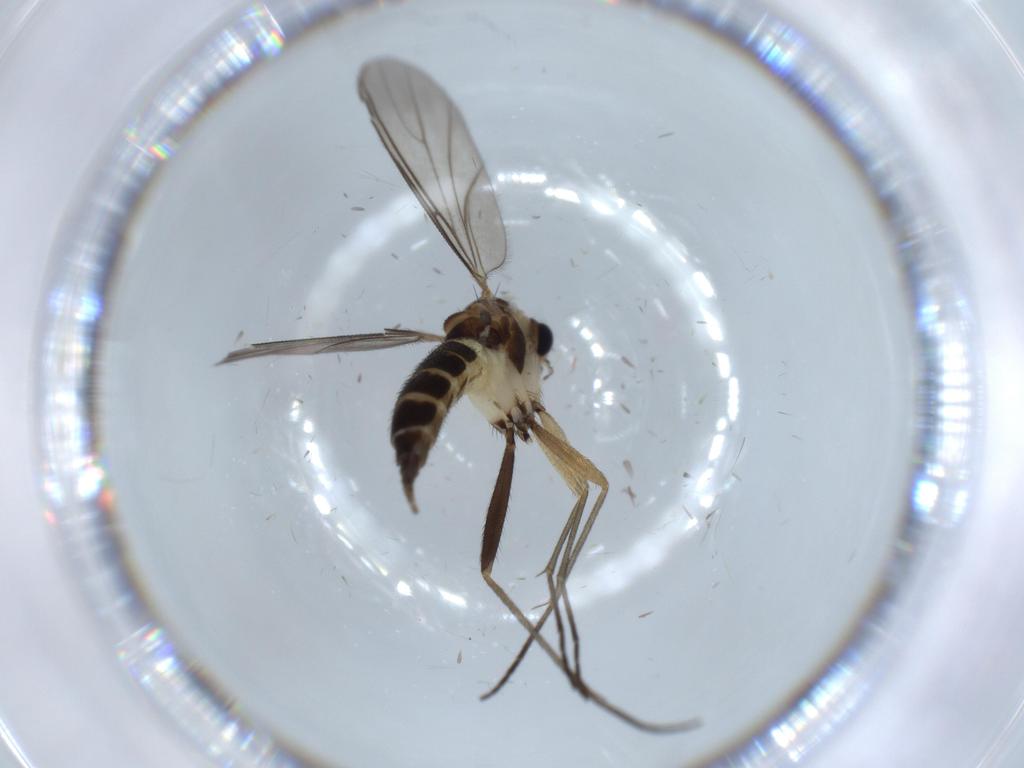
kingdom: Animalia
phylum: Arthropoda
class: Insecta
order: Diptera
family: Sciaridae
